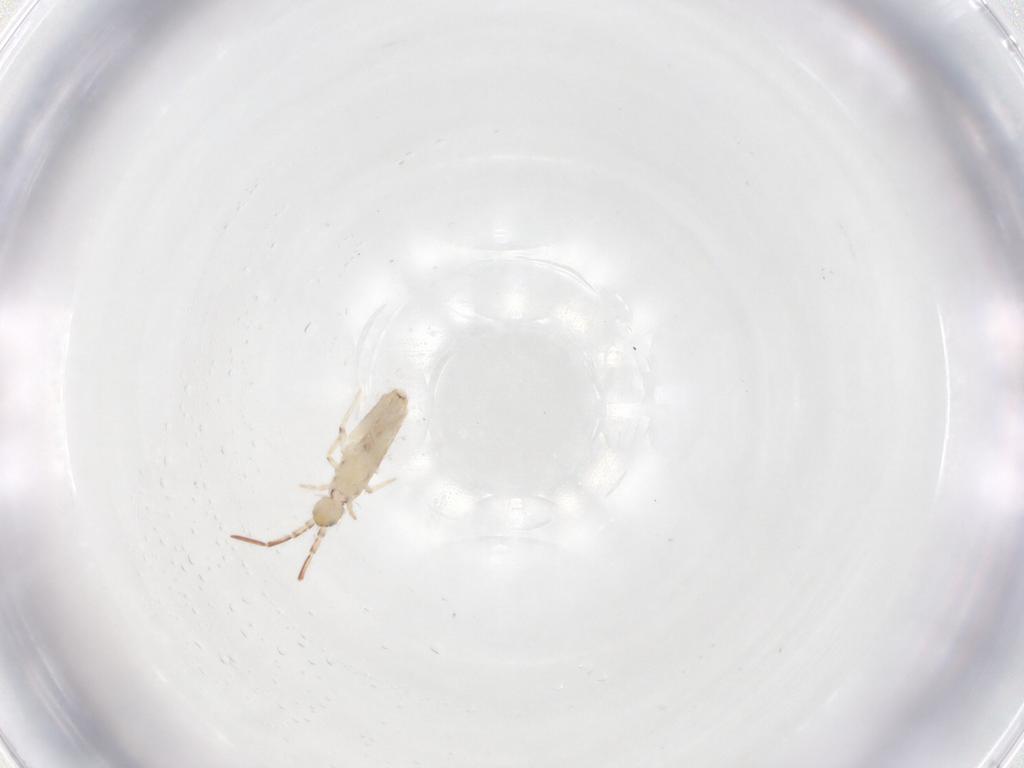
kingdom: Animalia
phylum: Arthropoda
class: Collembola
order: Entomobryomorpha
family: Entomobryidae
